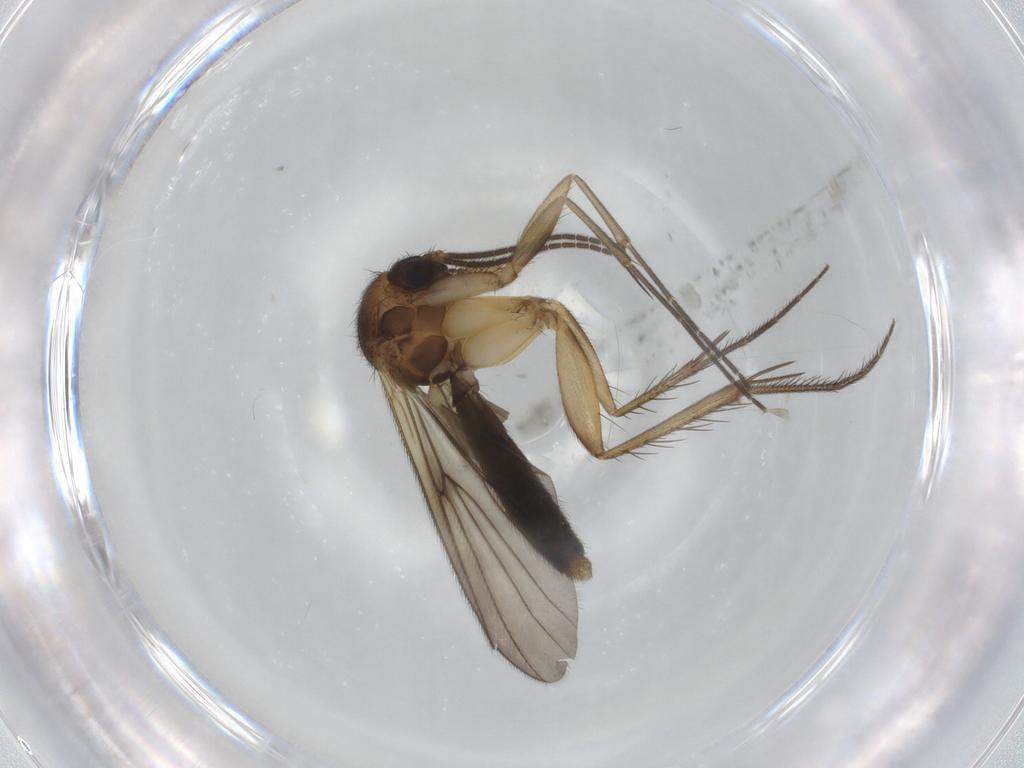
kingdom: Animalia
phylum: Arthropoda
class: Insecta
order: Diptera
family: Mycetophilidae
